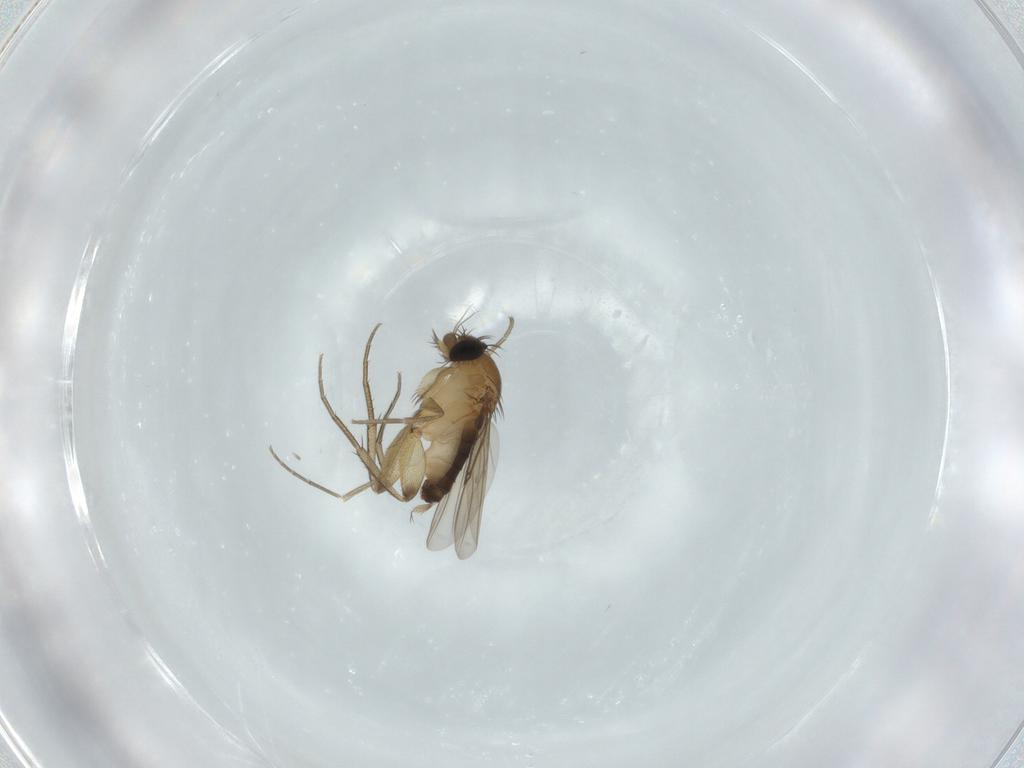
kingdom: Animalia
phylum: Arthropoda
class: Insecta
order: Diptera
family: Phoridae
